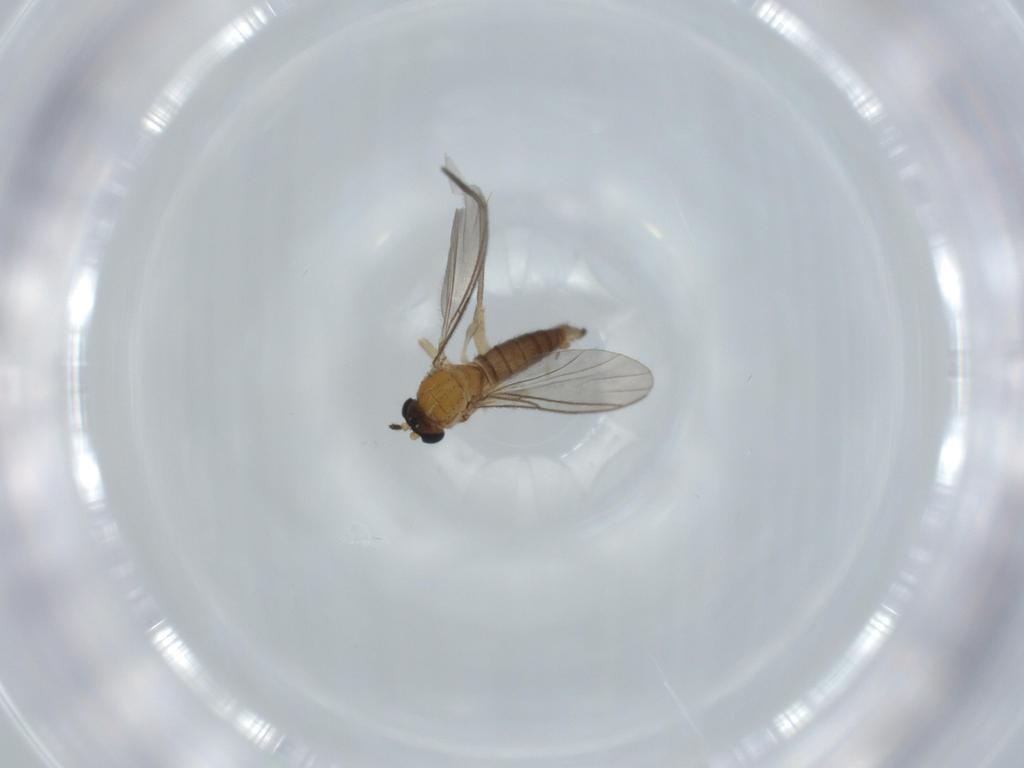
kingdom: Animalia
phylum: Arthropoda
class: Insecta
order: Diptera
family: Sciaridae
